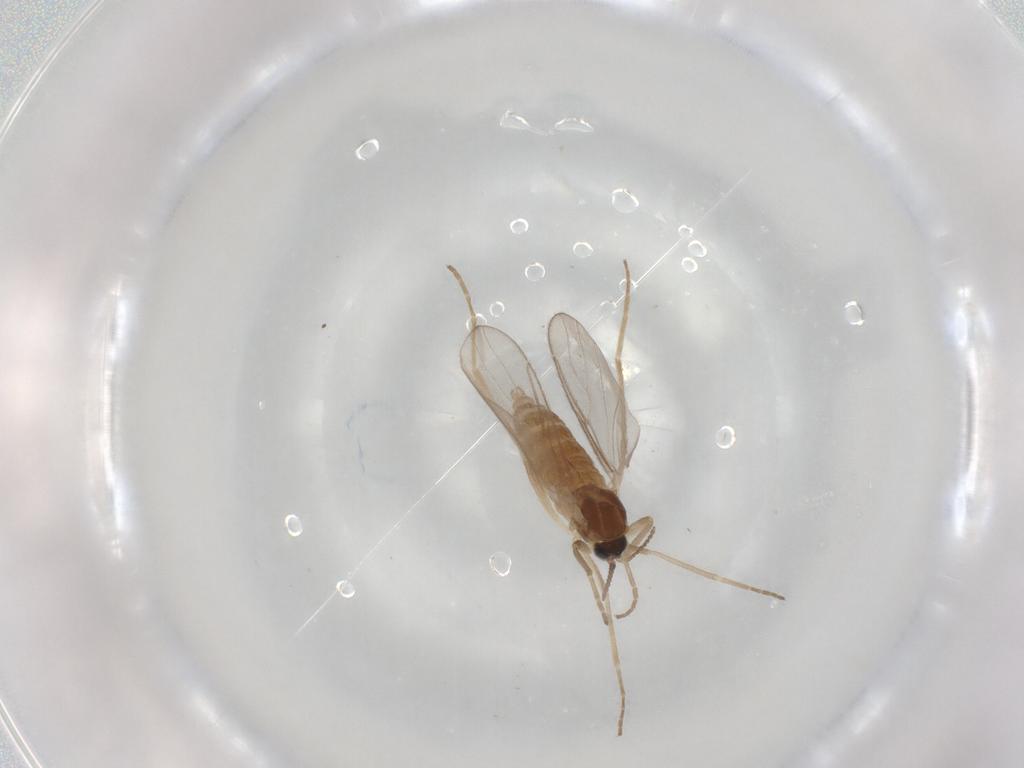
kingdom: Animalia
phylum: Arthropoda
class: Insecta
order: Diptera
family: Cecidomyiidae
